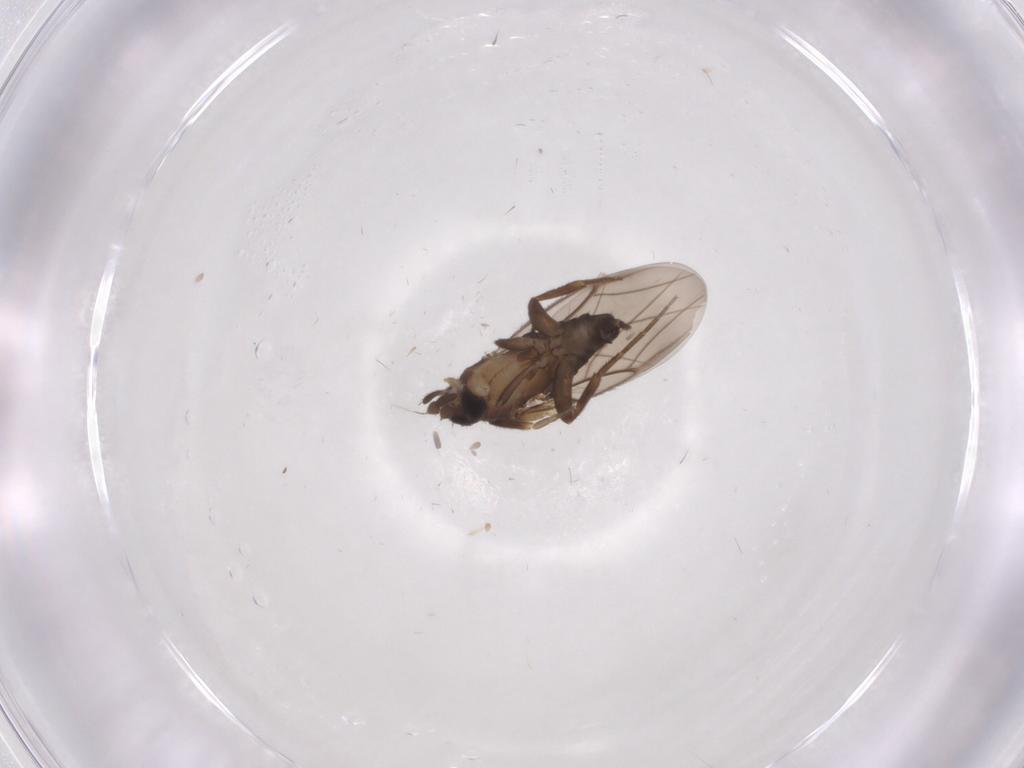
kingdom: Animalia
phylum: Arthropoda
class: Insecta
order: Diptera
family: Phoridae
